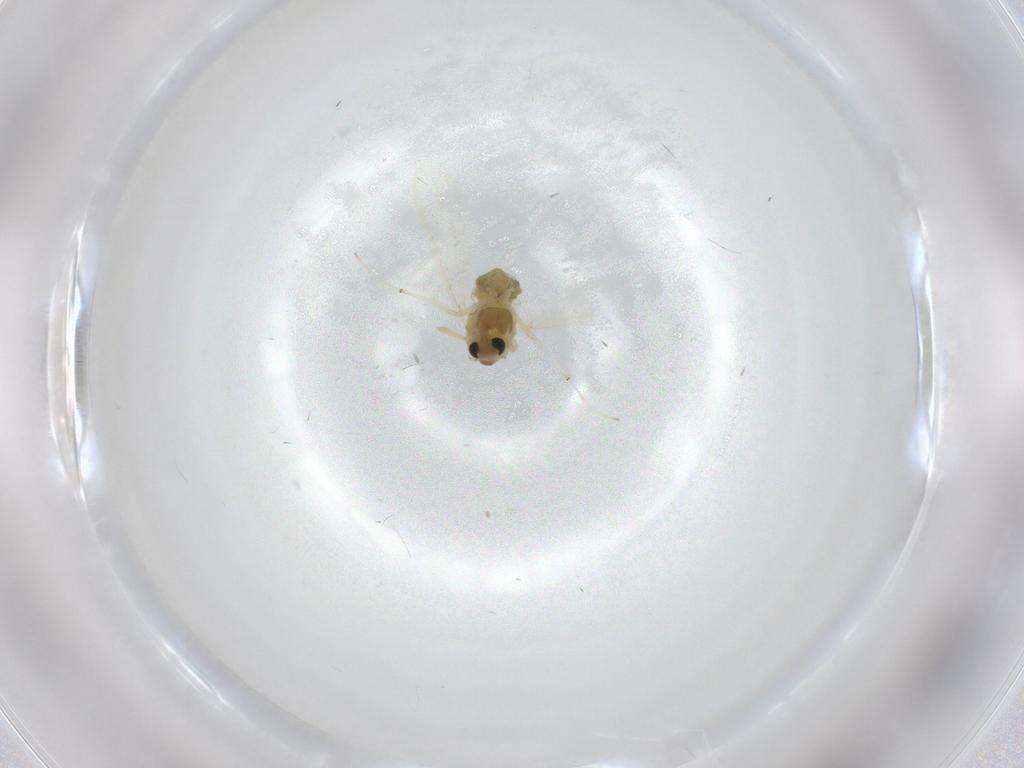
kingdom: Animalia
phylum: Arthropoda
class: Insecta
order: Diptera
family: Chironomidae
